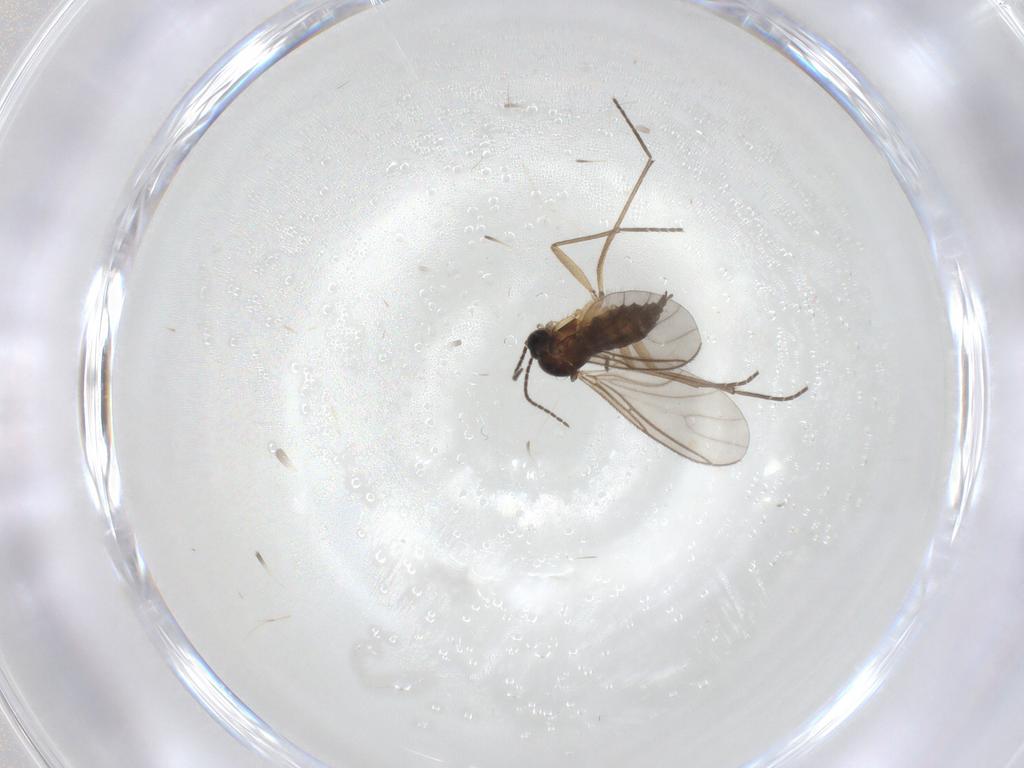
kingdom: Animalia
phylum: Arthropoda
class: Insecta
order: Diptera
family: Sciaridae
